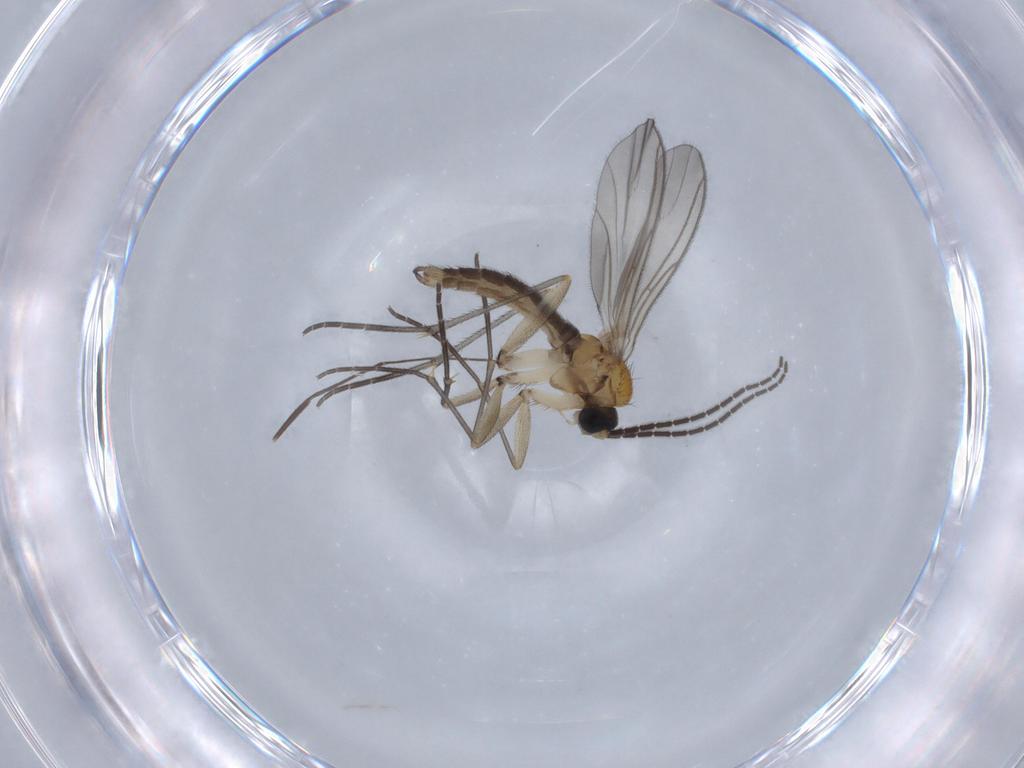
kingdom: Animalia
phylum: Arthropoda
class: Insecta
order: Diptera
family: Sciaridae
